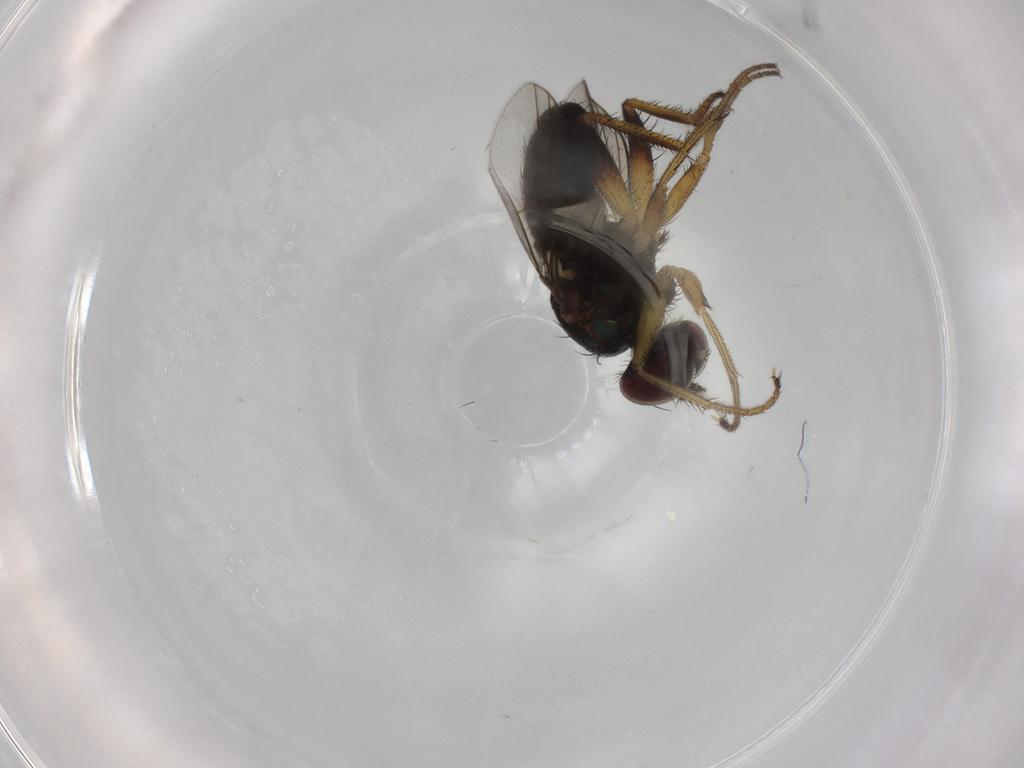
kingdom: Animalia
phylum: Arthropoda
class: Insecta
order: Diptera
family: Dolichopodidae
